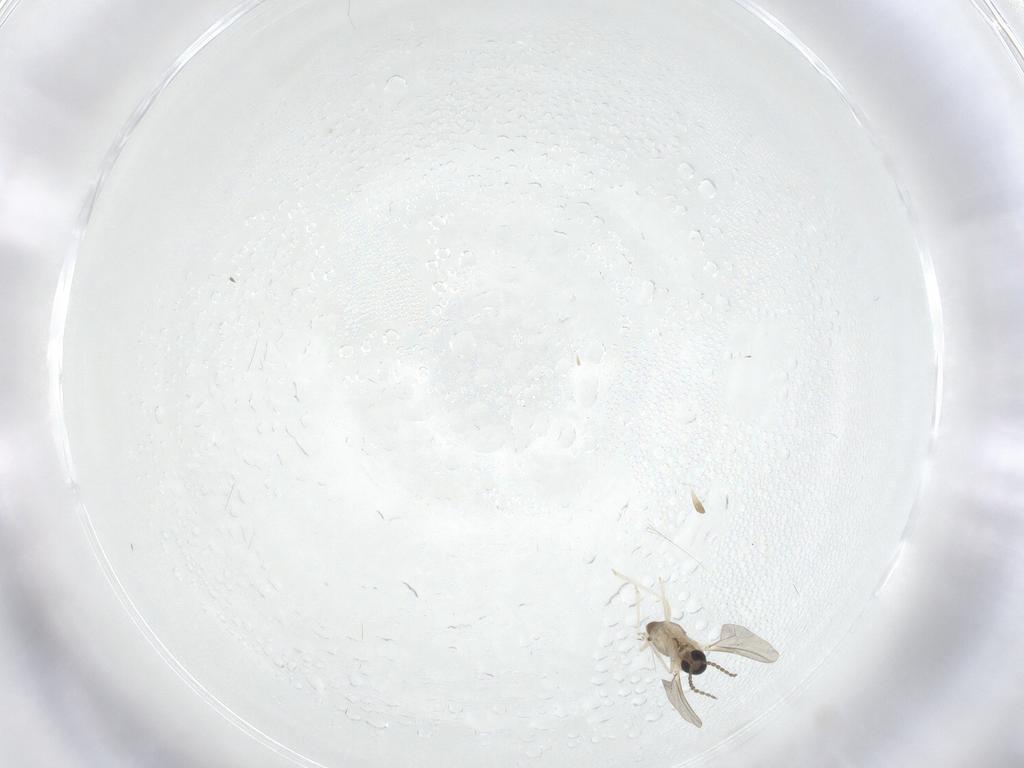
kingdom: Animalia
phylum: Arthropoda
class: Insecta
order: Diptera
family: Cecidomyiidae
